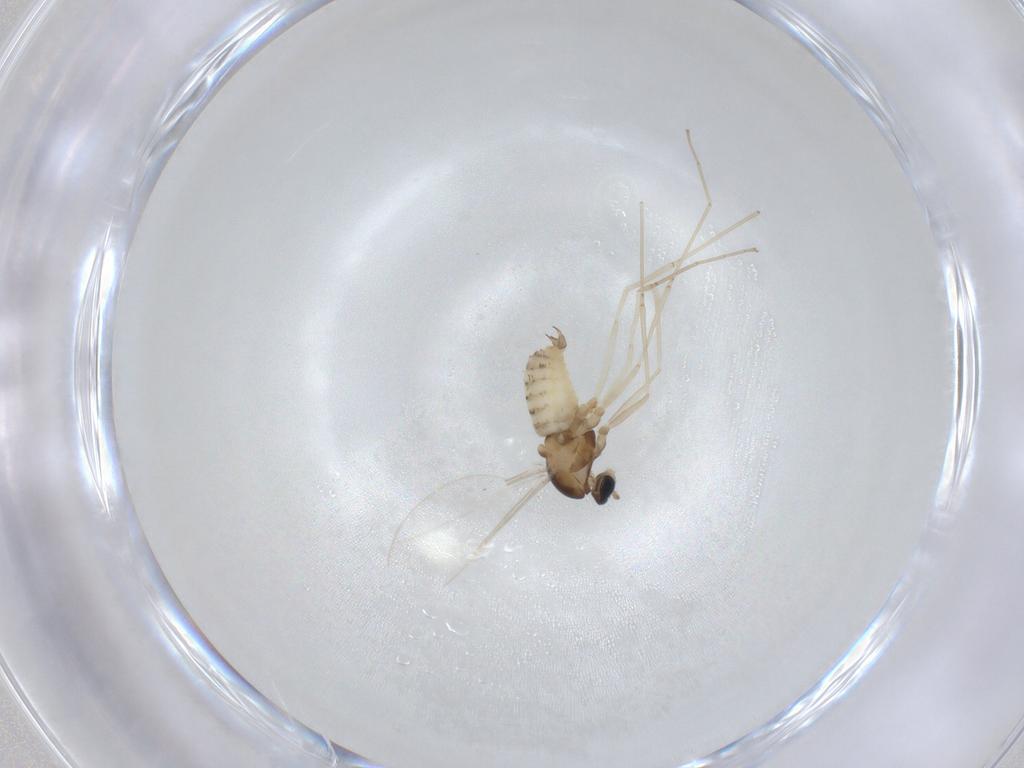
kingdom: Animalia
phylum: Arthropoda
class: Insecta
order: Diptera
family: Cecidomyiidae
